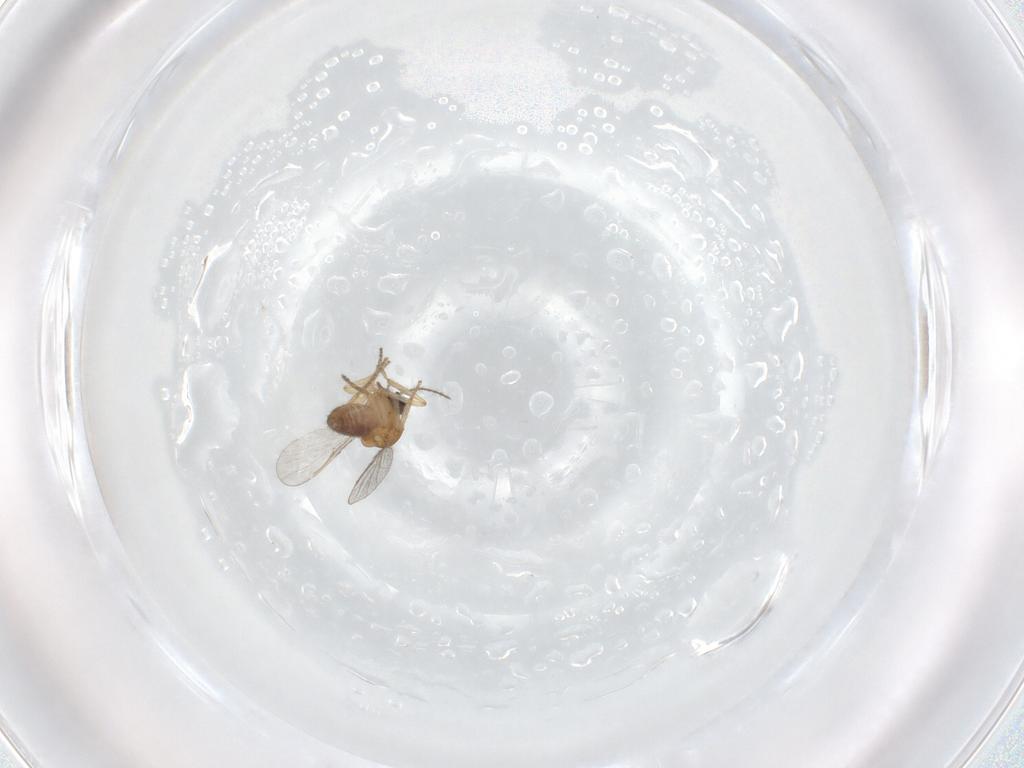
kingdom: Animalia
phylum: Arthropoda
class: Insecta
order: Diptera
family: Ceratopogonidae
